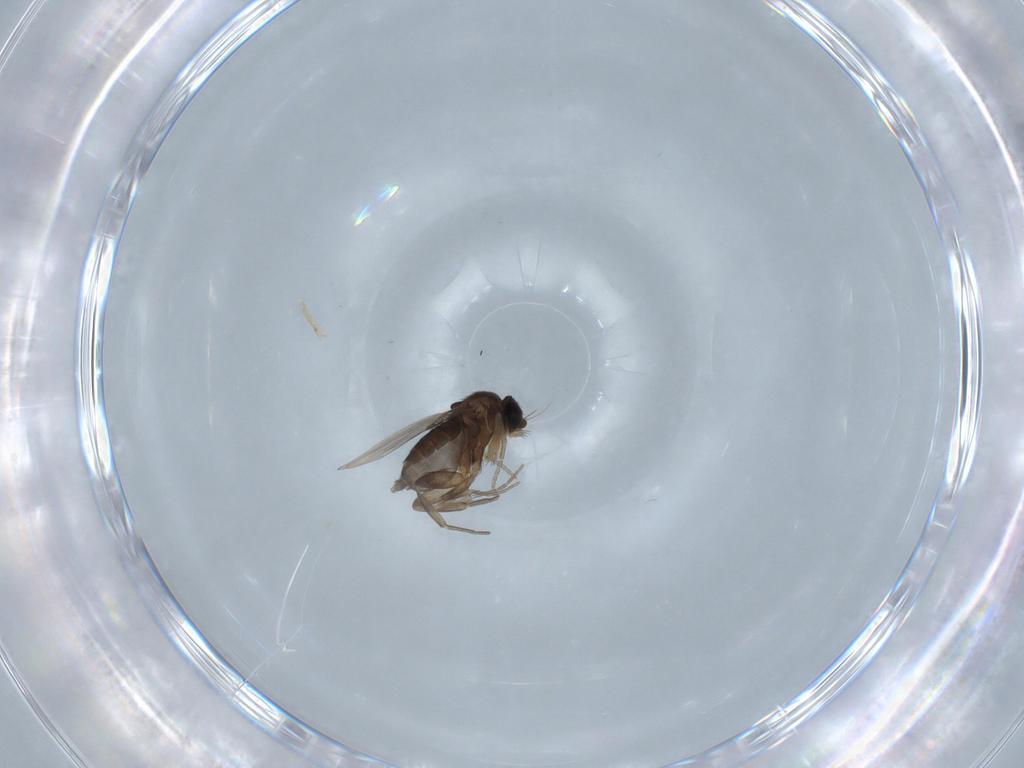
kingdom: Animalia
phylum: Arthropoda
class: Insecta
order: Diptera
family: Phoridae
